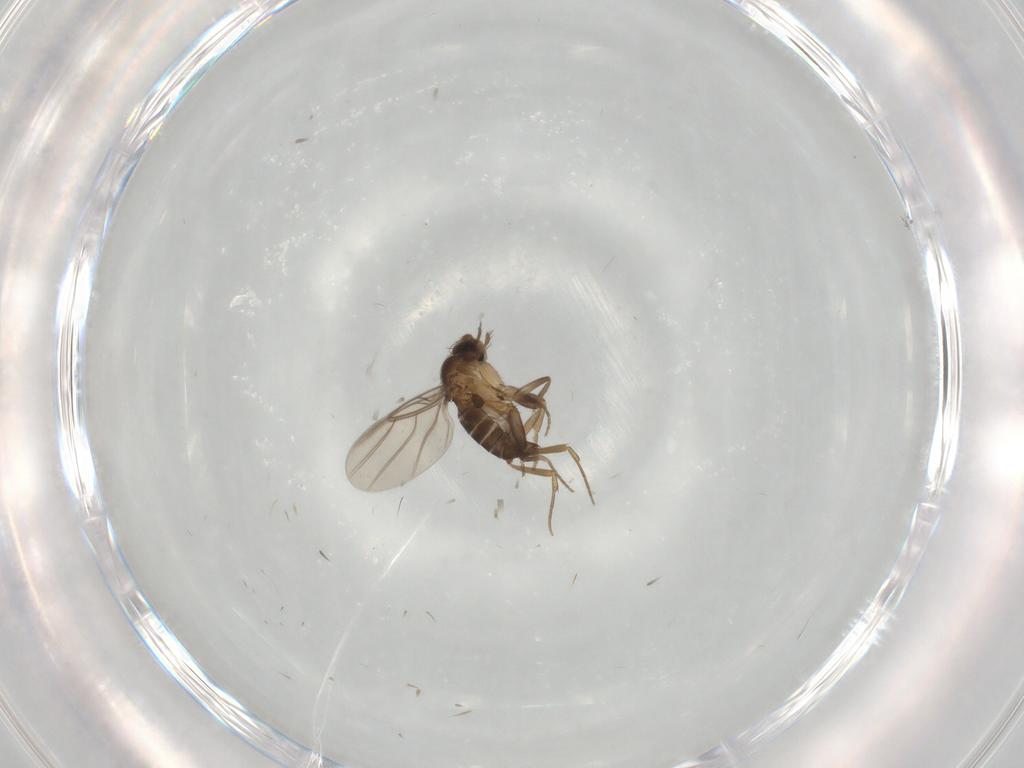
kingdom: Animalia
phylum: Arthropoda
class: Insecta
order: Diptera
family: Phoridae
